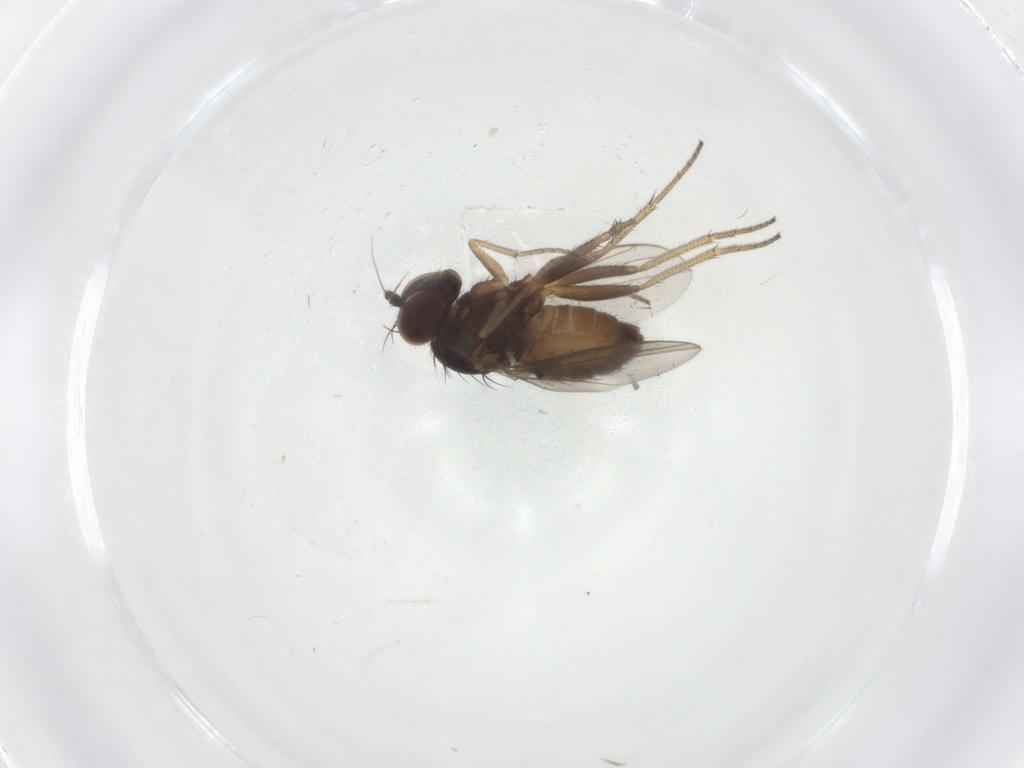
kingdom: Animalia
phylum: Arthropoda
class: Insecta
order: Diptera
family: Dolichopodidae
